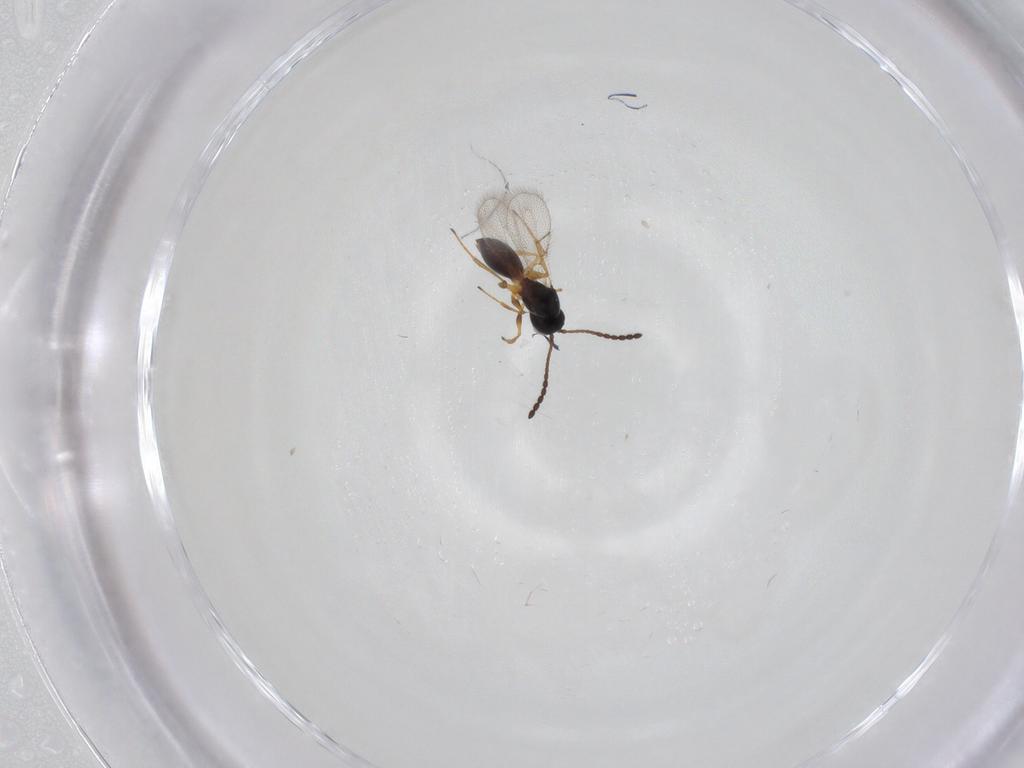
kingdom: Animalia
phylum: Arthropoda
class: Insecta
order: Hymenoptera
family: Figitidae
